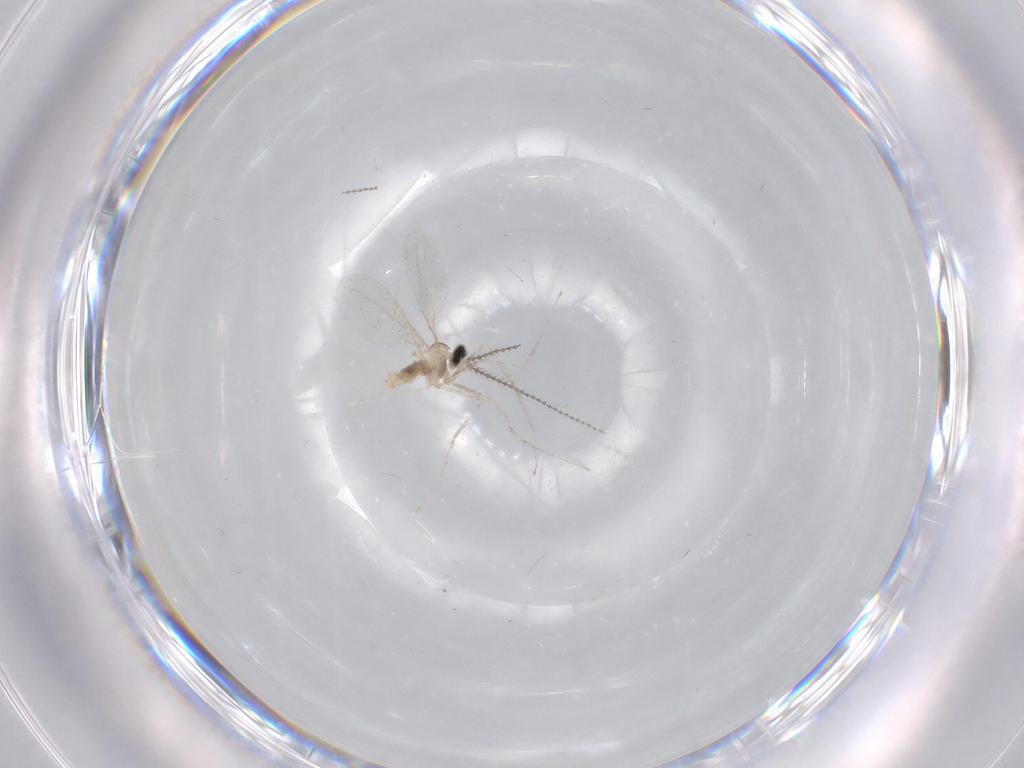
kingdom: Animalia
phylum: Arthropoda
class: Insecta
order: Diptera
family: Cecidomyiidae
